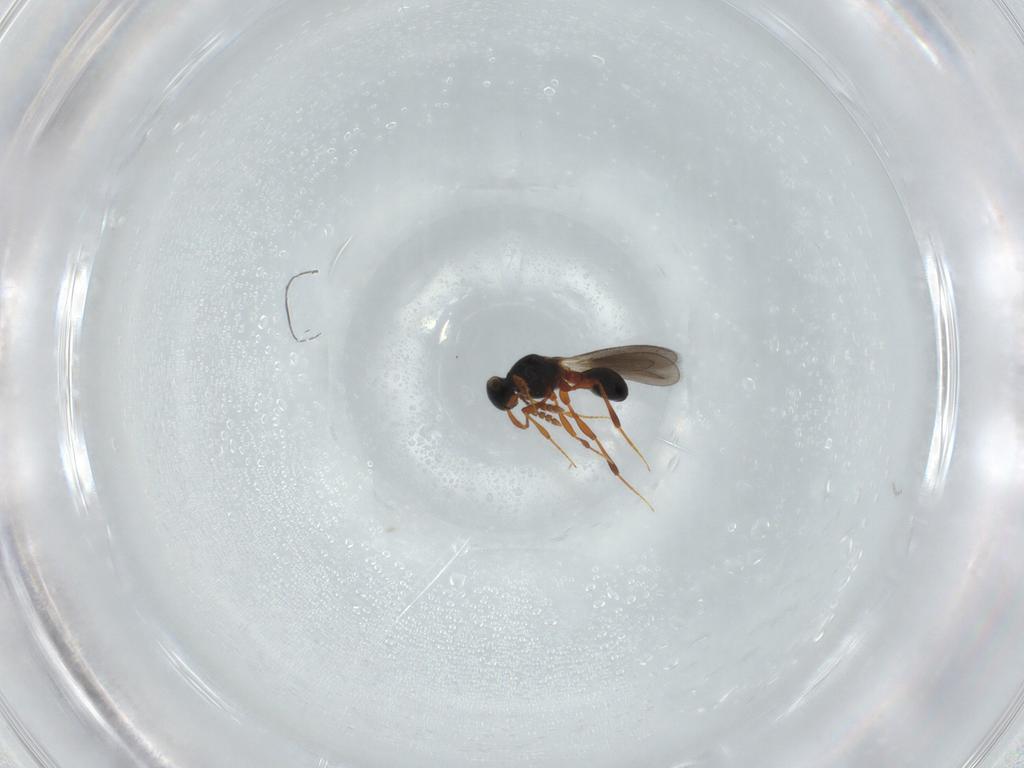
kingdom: Animalia
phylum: Arthropoda
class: Insecta
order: Hymenoptera
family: Platygastridae
